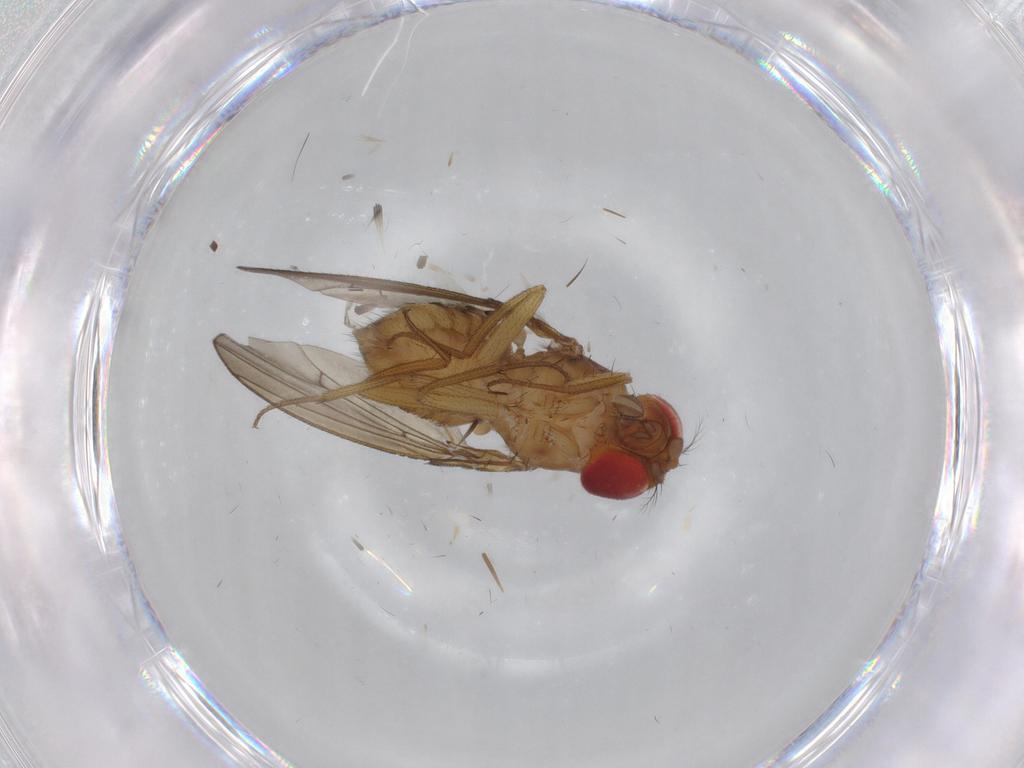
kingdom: Animalia
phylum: Arthropoda
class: Insecta
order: Diptera
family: Drosophilidae
